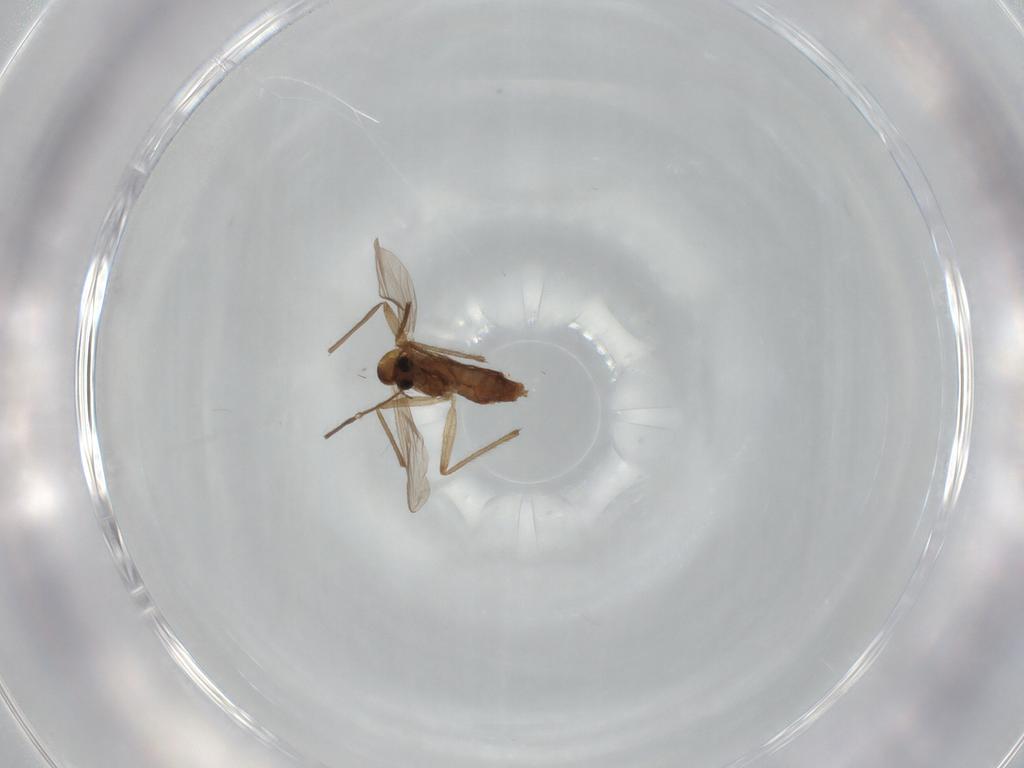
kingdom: Animalia
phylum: Arthropoda
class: Insecta
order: Diptera
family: Chironomidae
